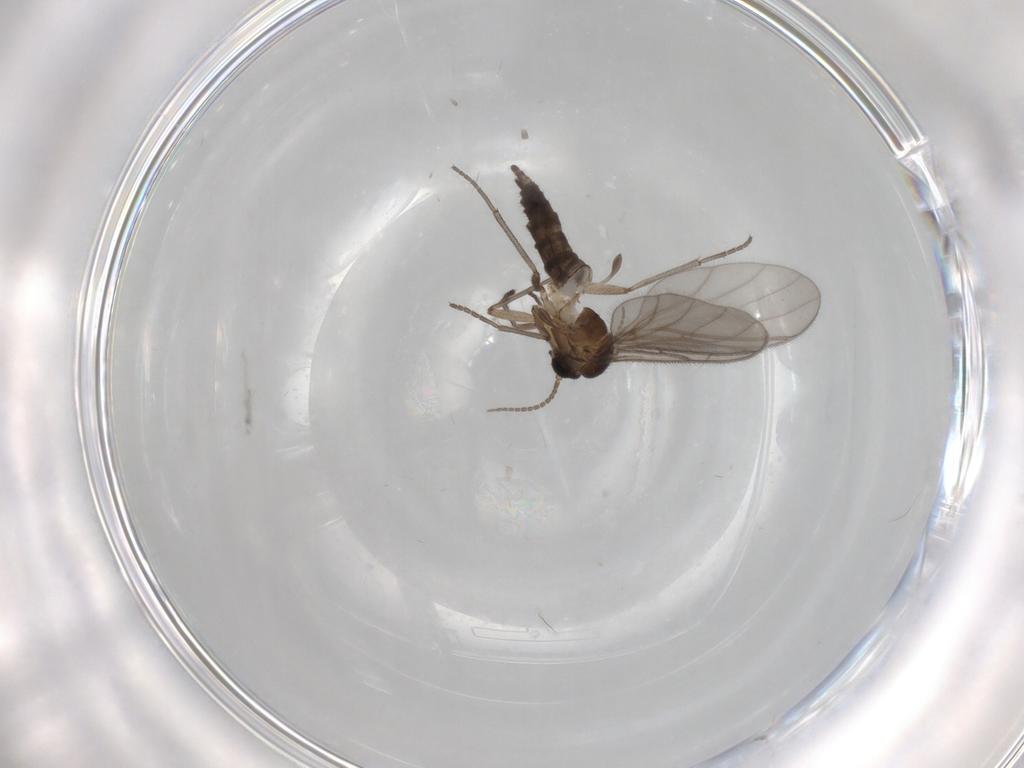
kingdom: Animalia
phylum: Arthropoda
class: Insecta
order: Diptera
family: Sciaridae
